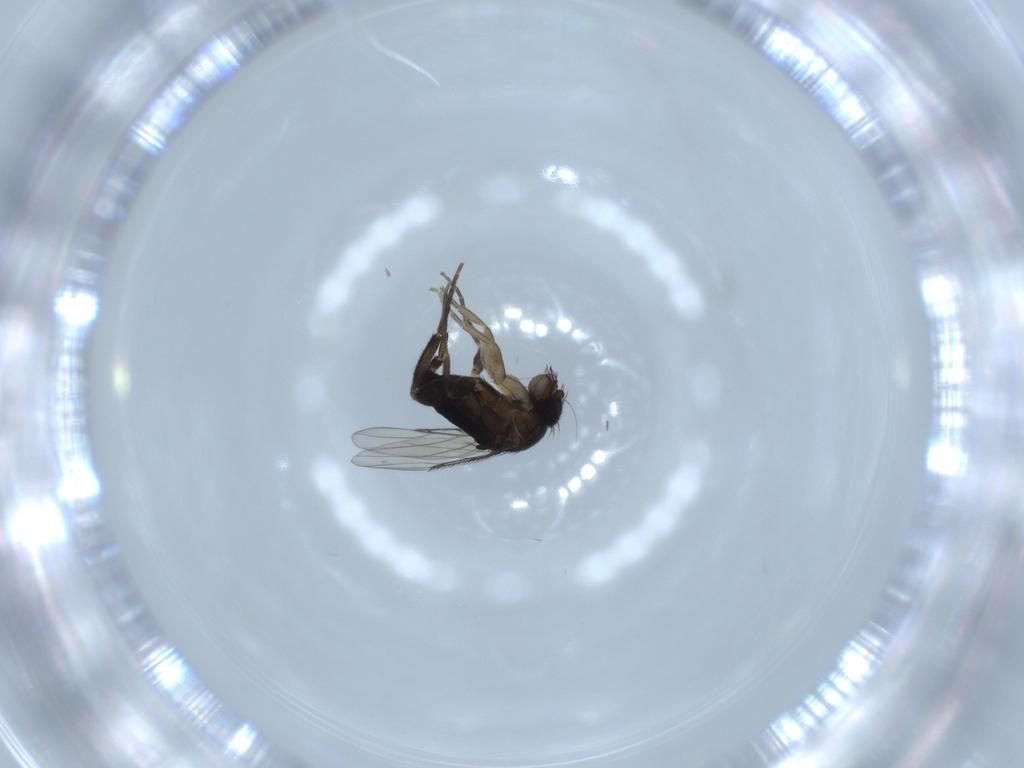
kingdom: Animalia
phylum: Arthropoda
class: Insecta
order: Diptera
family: Phoridae
